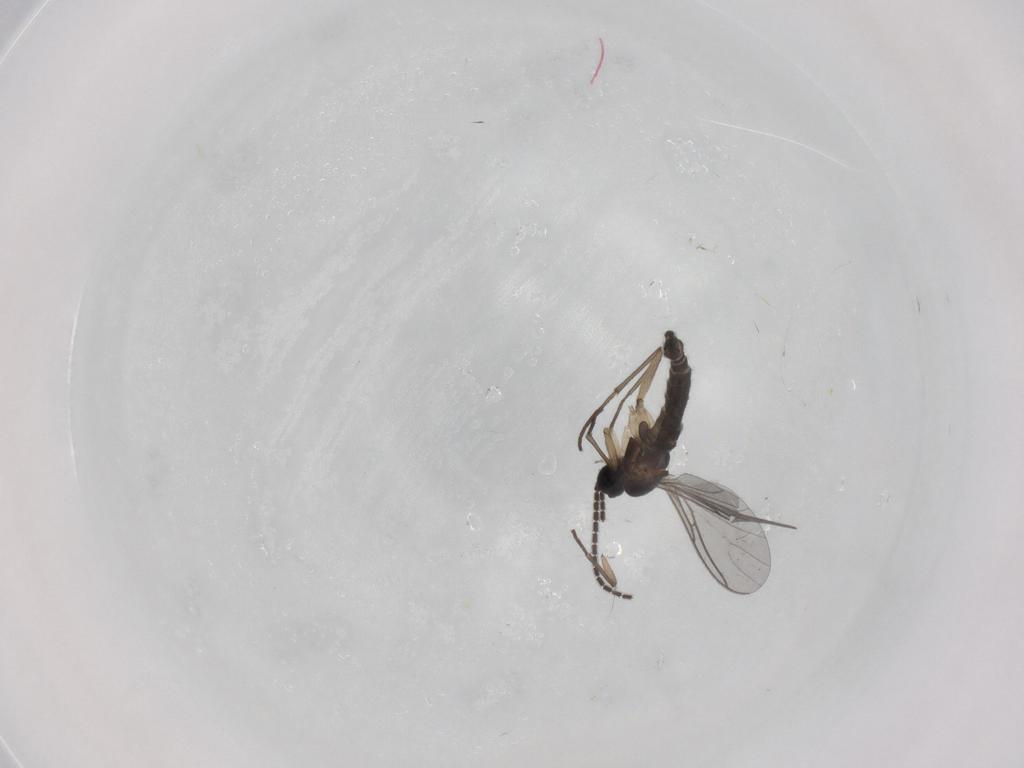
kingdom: Animalia
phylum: Arthropoda
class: Insecta
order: Diptera
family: Sciaridae
